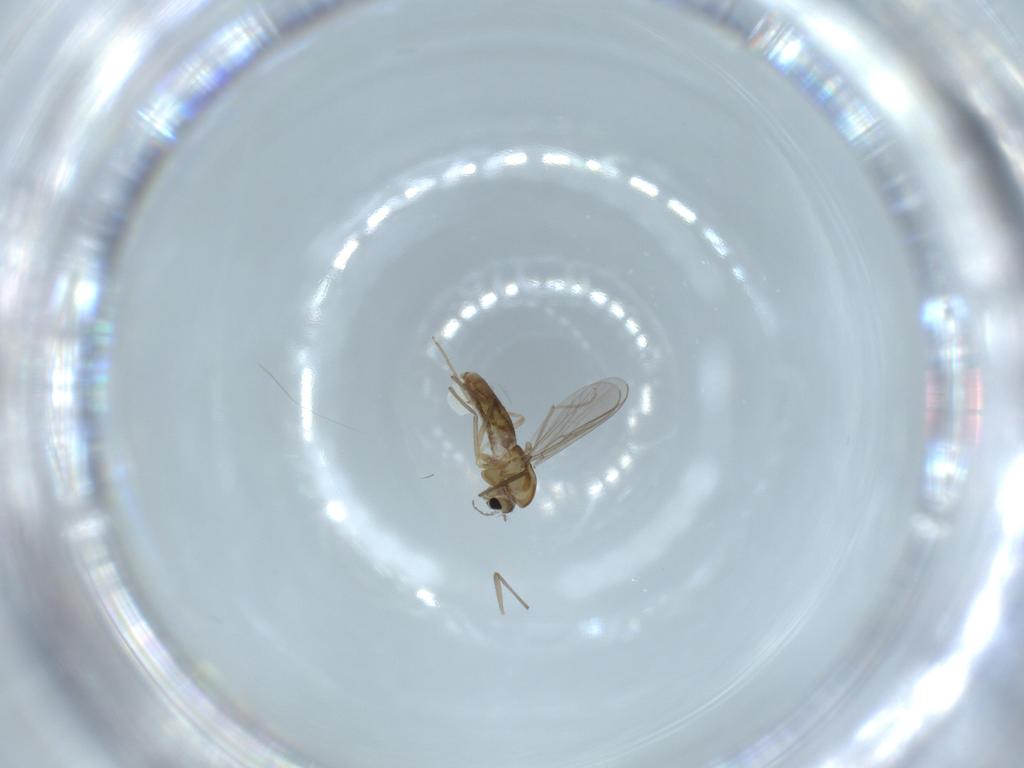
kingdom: Animalia
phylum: Arthropoda
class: Insecta
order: Diptera
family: Chironomidae
